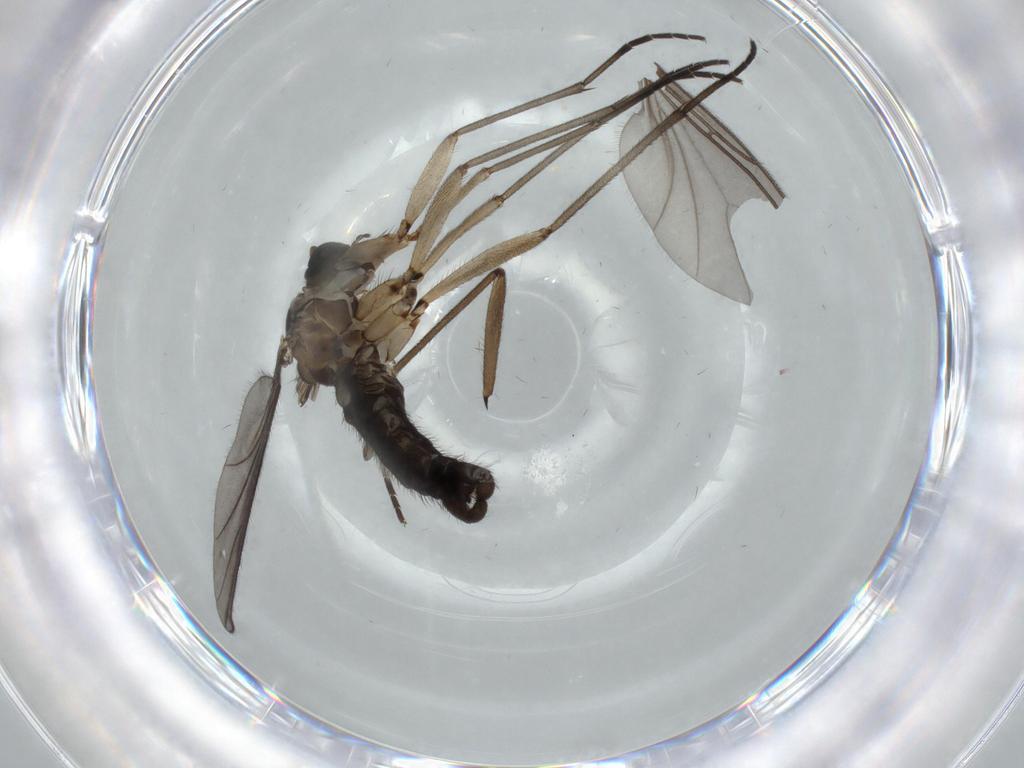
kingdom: Animalia
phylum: Arthropoda
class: Insecta
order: Diptera
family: Sciaridae
